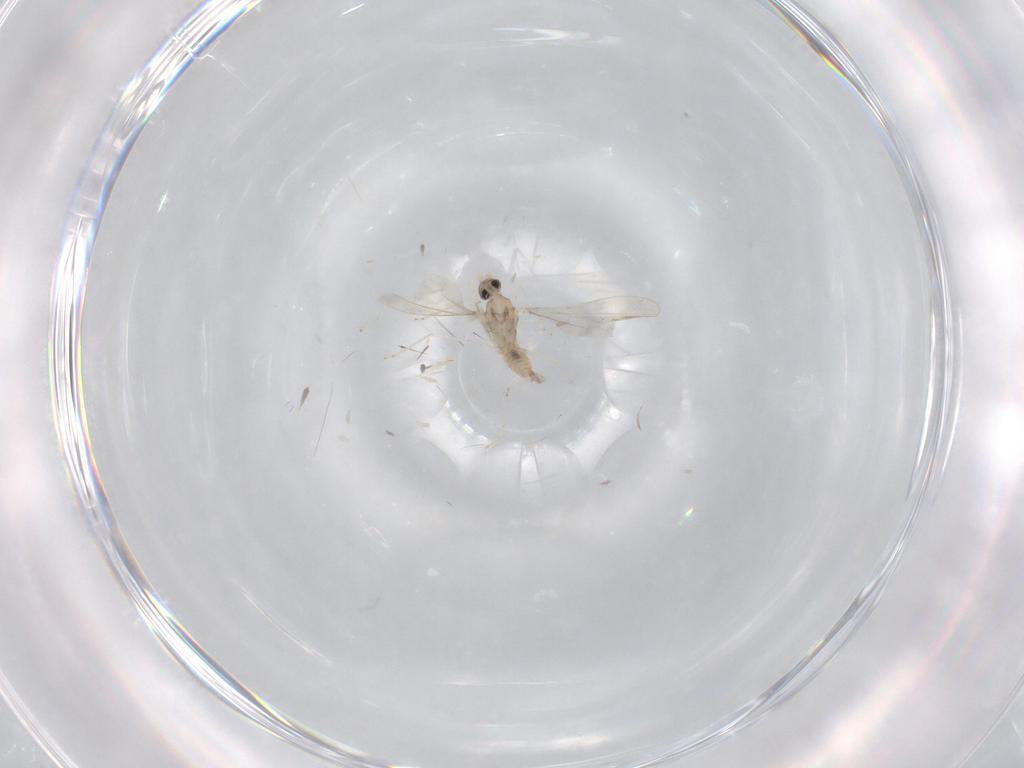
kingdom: Animalia
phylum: Arthropoda
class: Insecta
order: Diptera
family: Cecidomyiidae
